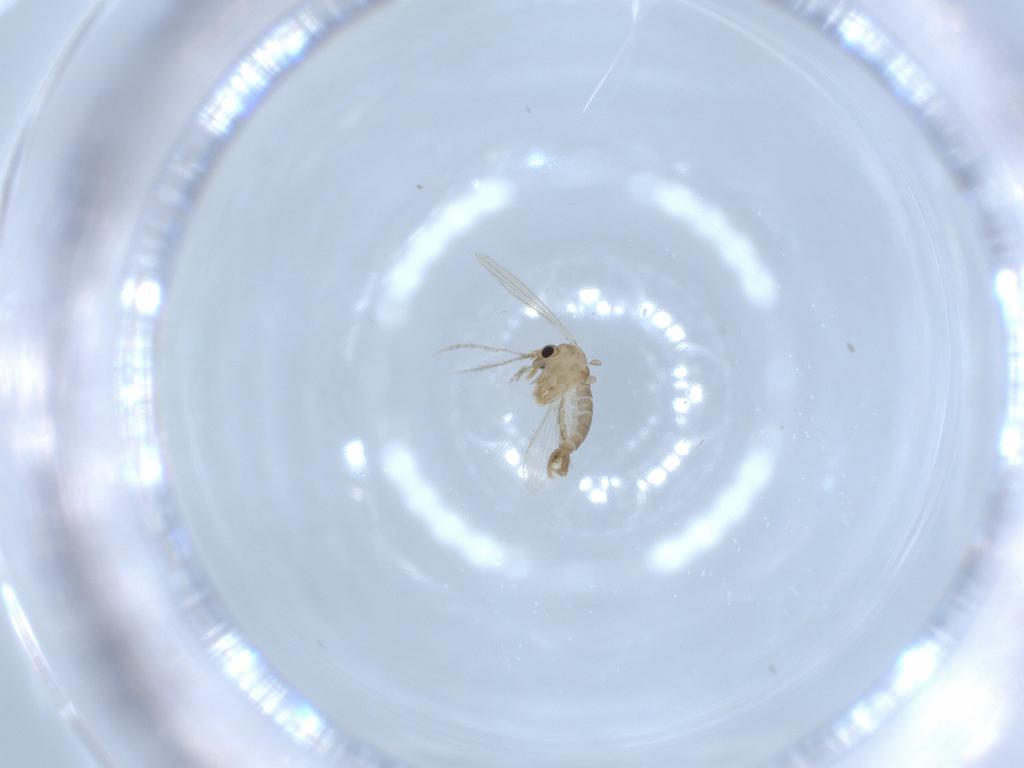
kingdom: Animalia
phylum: Arthropoda
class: Insecta
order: Diptera
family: Psychodidae
